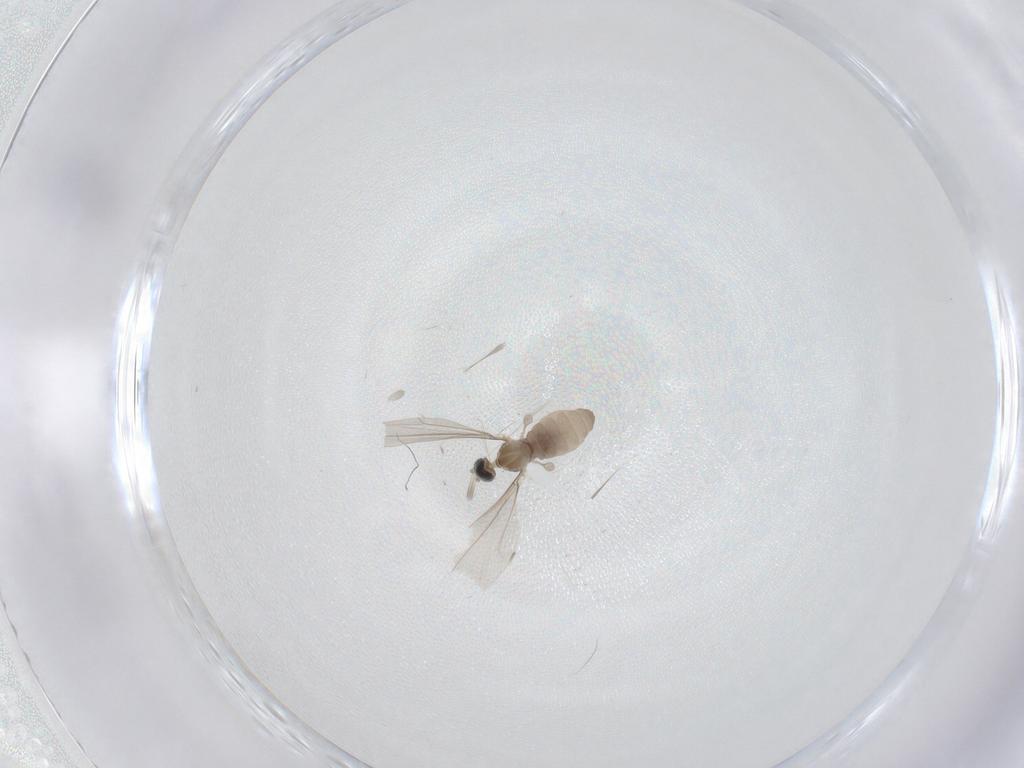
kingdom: Animalia
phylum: Arthropoda
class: Insecta
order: Diptera
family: Cecidomyiidae
